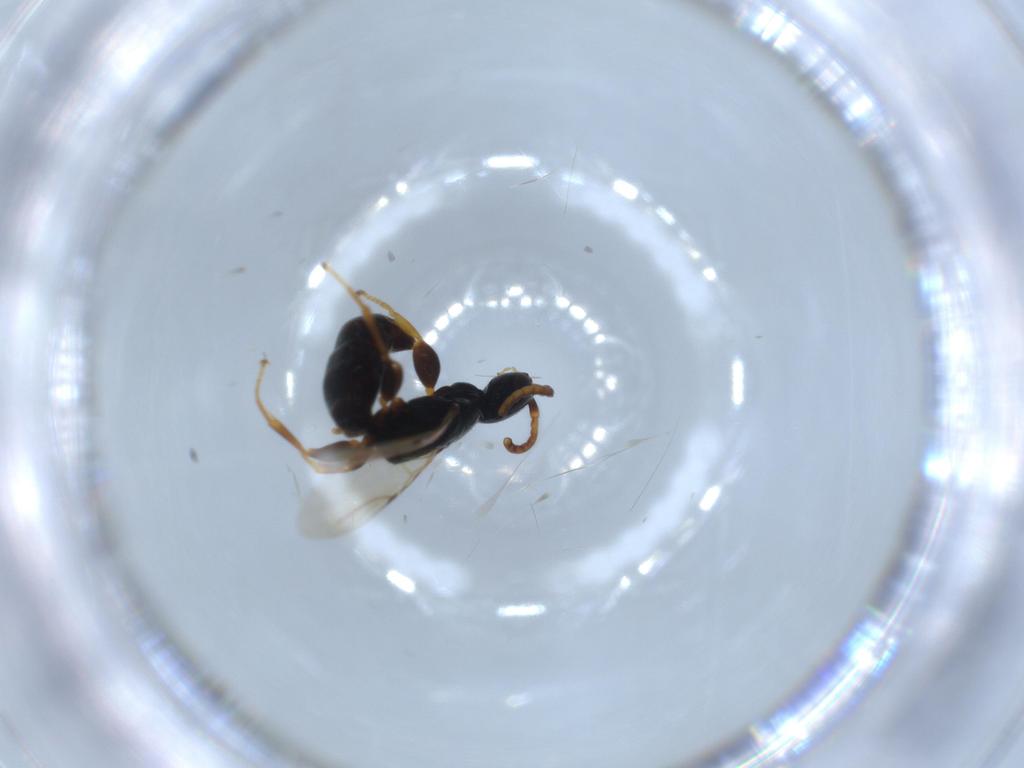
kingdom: Animalia
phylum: Arthropoda
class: Insecta
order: Hymenoptera
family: Bethylidae
